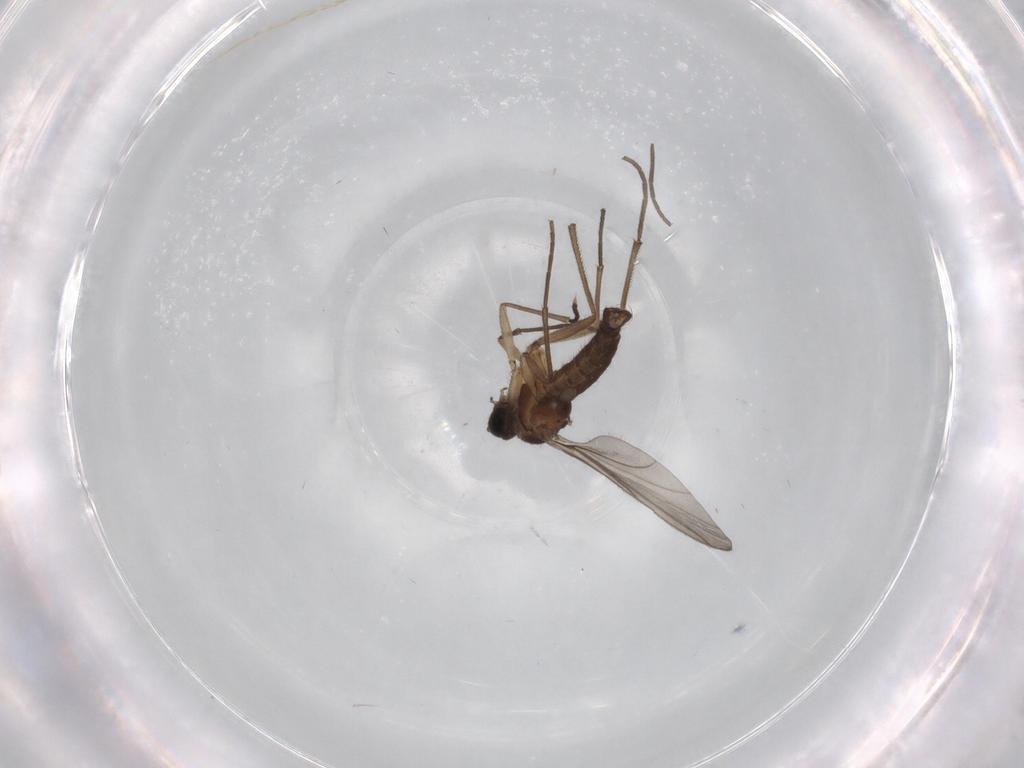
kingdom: Animalia
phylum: Arthropoda
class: Insecta
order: Diptera
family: Sciaridae
